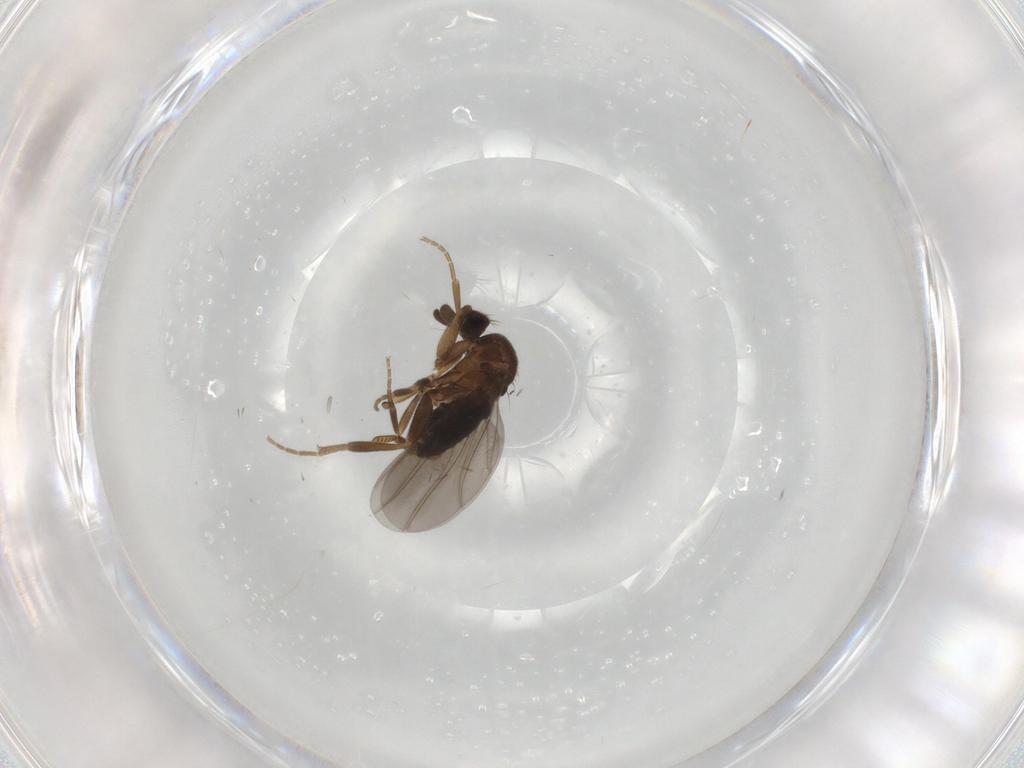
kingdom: Animalia
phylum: Arthropoda
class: Insecta
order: Diptera
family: Phoridae
